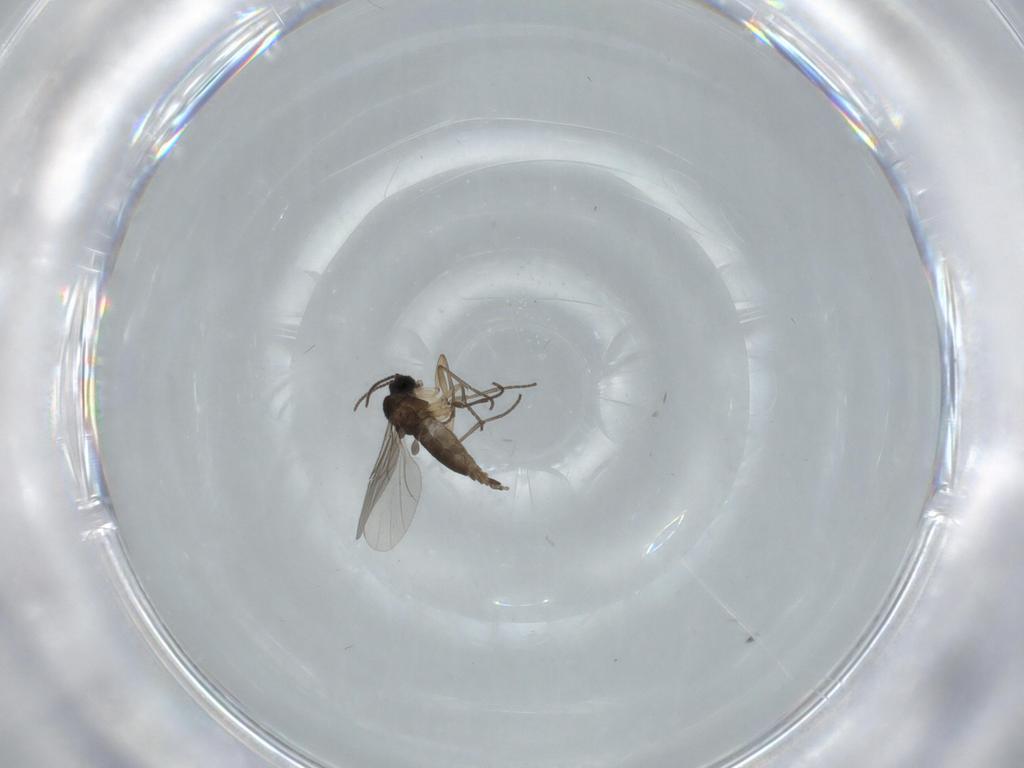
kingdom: Animalia
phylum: Arthropoda
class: Insecta
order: Diptera
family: Sciaridae
